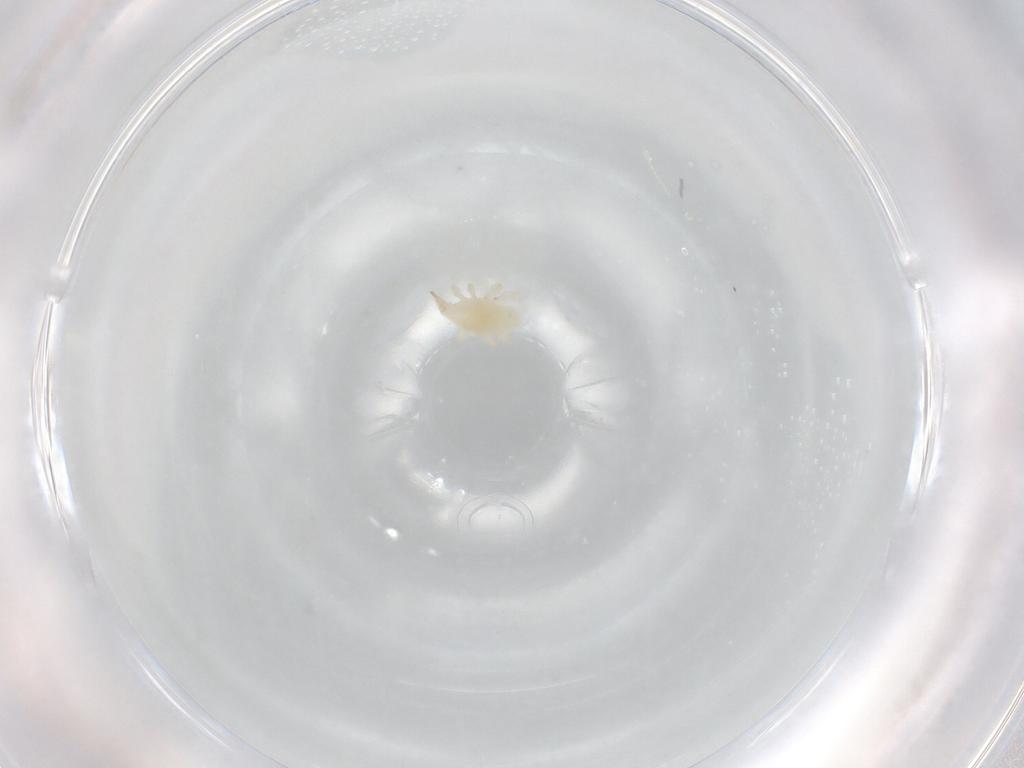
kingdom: Animalia
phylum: Arthropoda
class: Arachnida
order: Trombidiformes
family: Bdellidae
